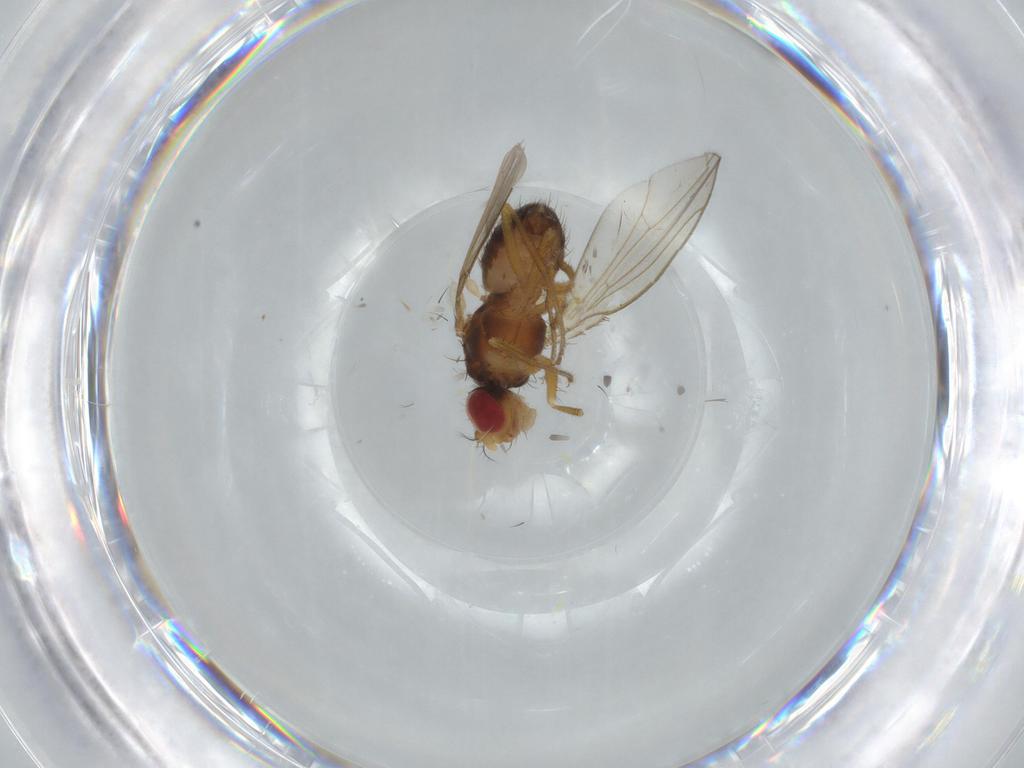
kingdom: Animalia
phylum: Arthropoda
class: Insecta
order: Diptera
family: Drosophilidae
